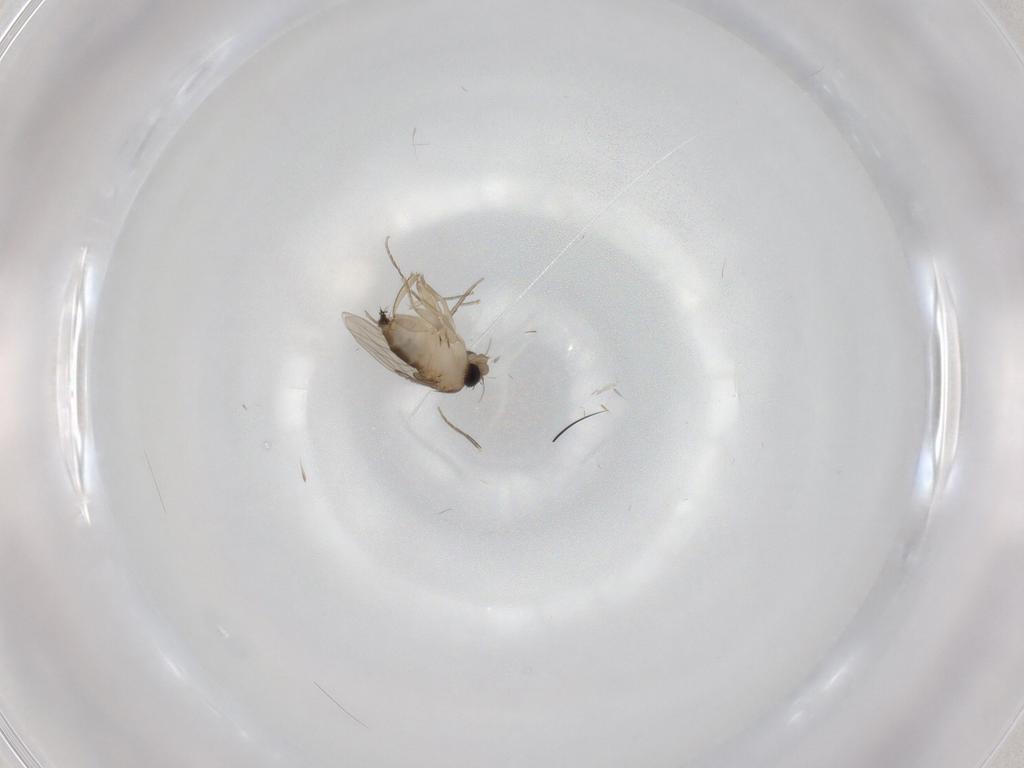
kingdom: Animalia
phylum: Arthropoda
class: Insecta
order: Diptera
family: Phoridae
